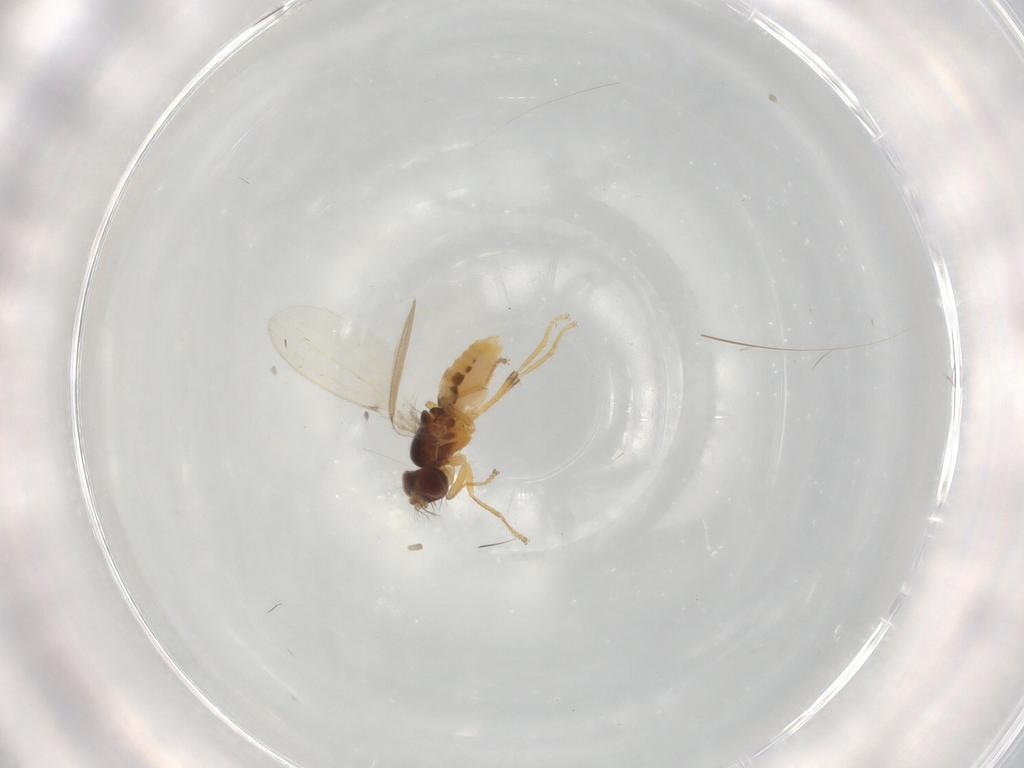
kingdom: Animalia
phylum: Arthropoda
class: Insecta
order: Diptera
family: Periscelididae
